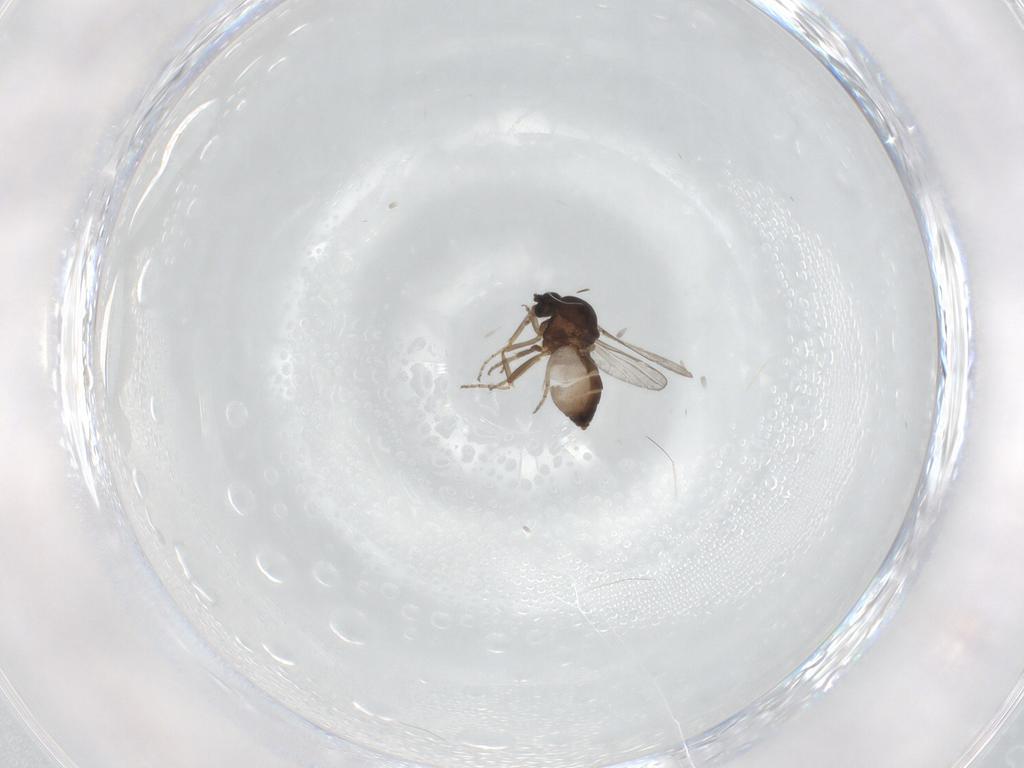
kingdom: Animalia
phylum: Arthropoda
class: Insecta
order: Diptera
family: Ceratopogonidae
